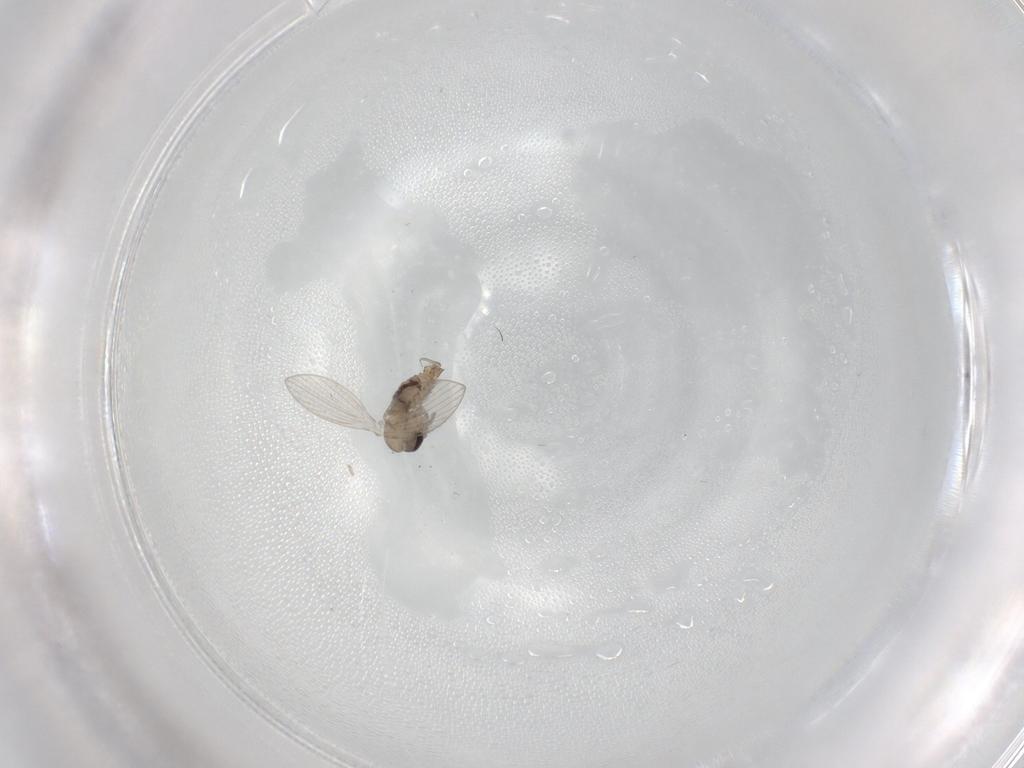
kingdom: Animalia
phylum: Arthropoda
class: Insecta
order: Diptera
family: Psychodidae
